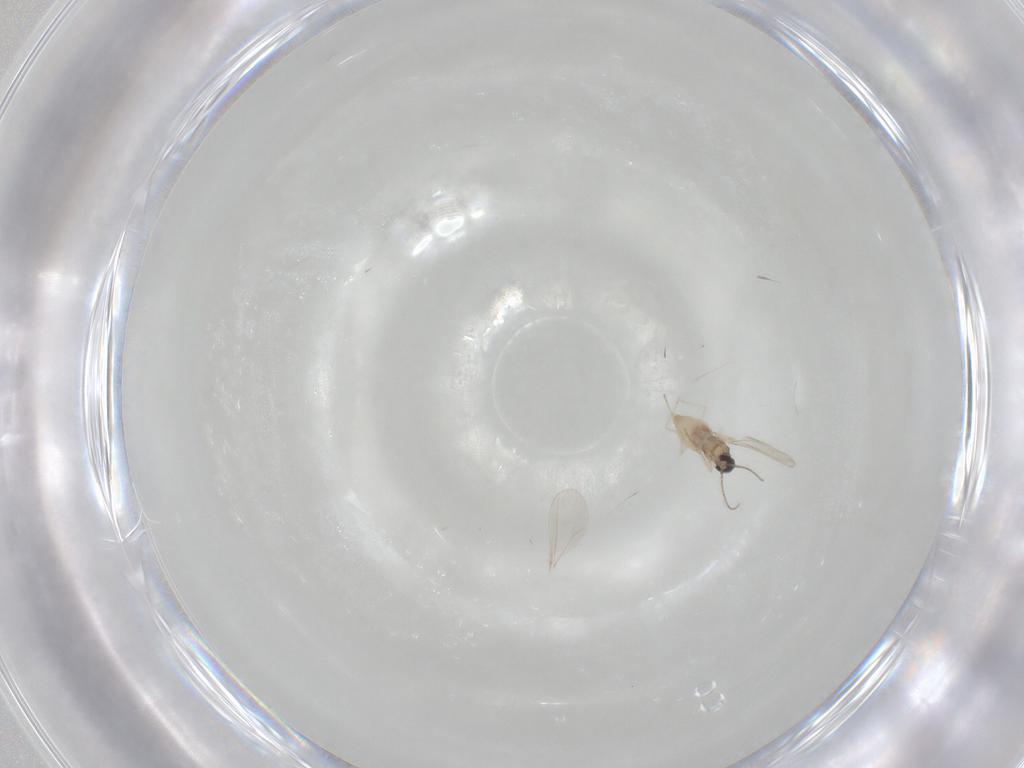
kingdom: Animalia
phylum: Arthropoda
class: Insecta
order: Diptera
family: Cecidomyiidae
